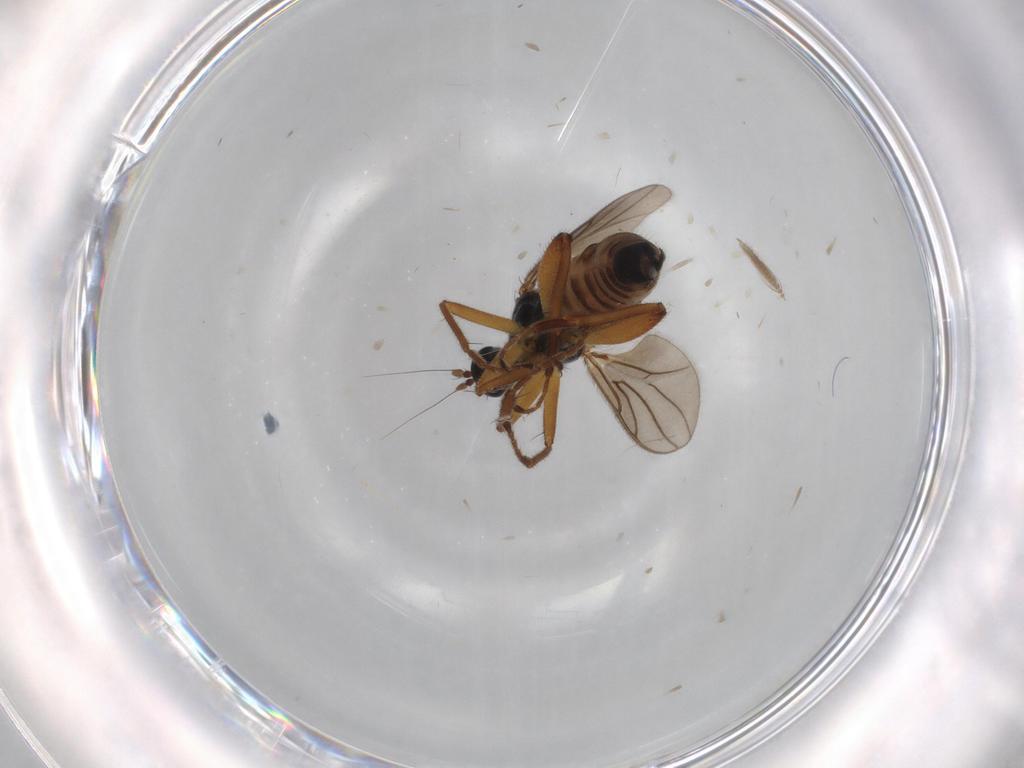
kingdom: Animalia
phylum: Arthropoda
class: Insecta
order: Diptera
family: Hybotidae
